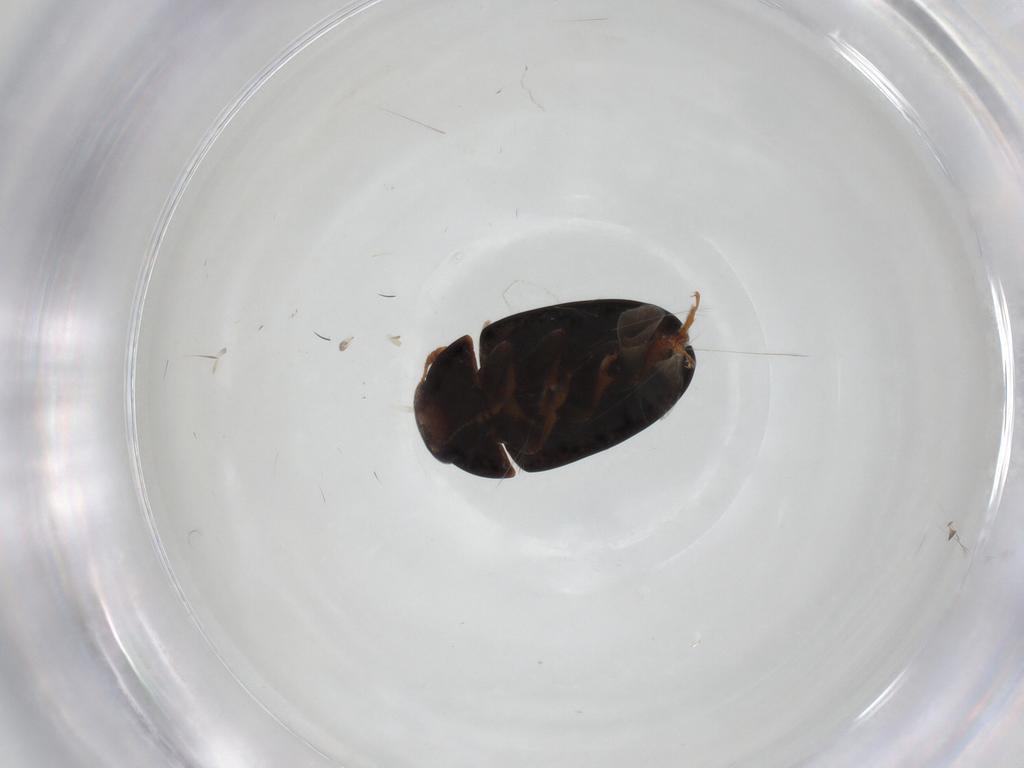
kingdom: Animalia
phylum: Arthropoda
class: Insecta
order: Coleoptera
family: Phalacridae
